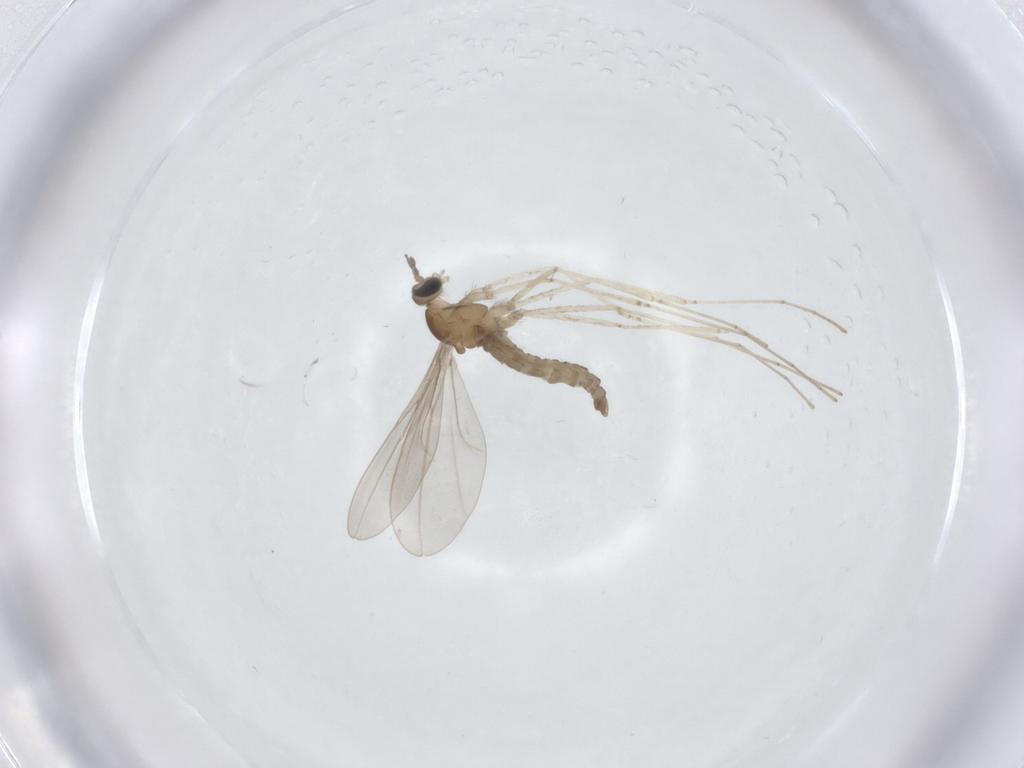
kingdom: Animalia
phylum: Arthropoda
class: Insecta
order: Diptera
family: Cecidomyiidae
